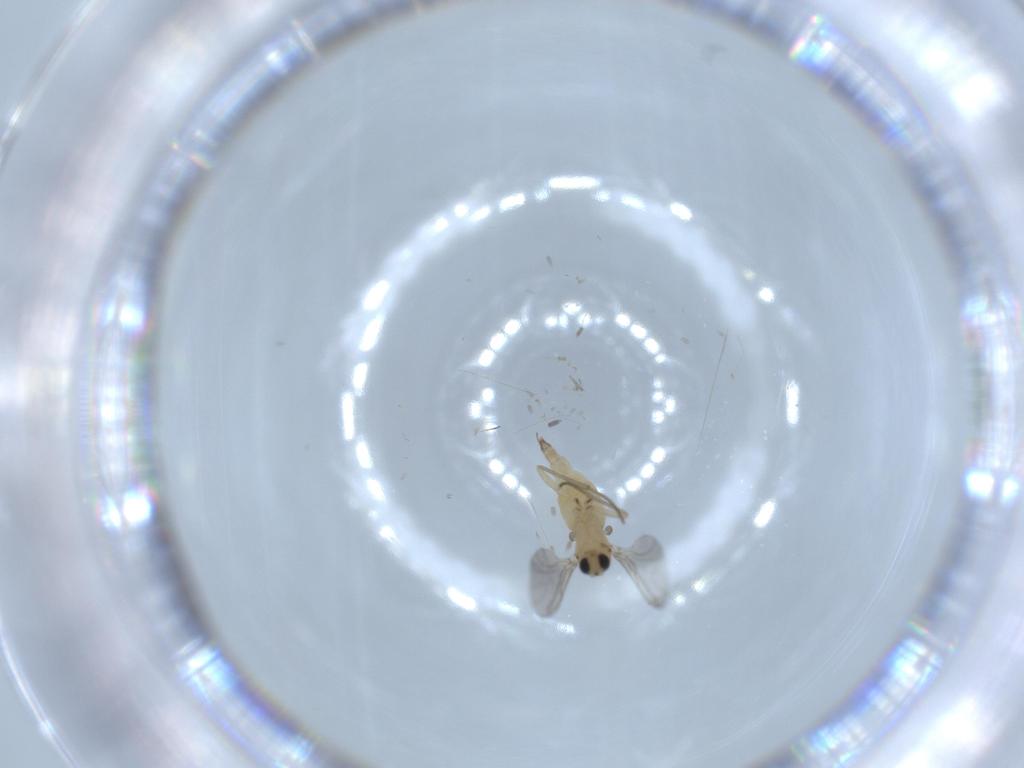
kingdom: Animalia
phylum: Arthropoda
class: Insecta
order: Diptera
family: Sciaridae
